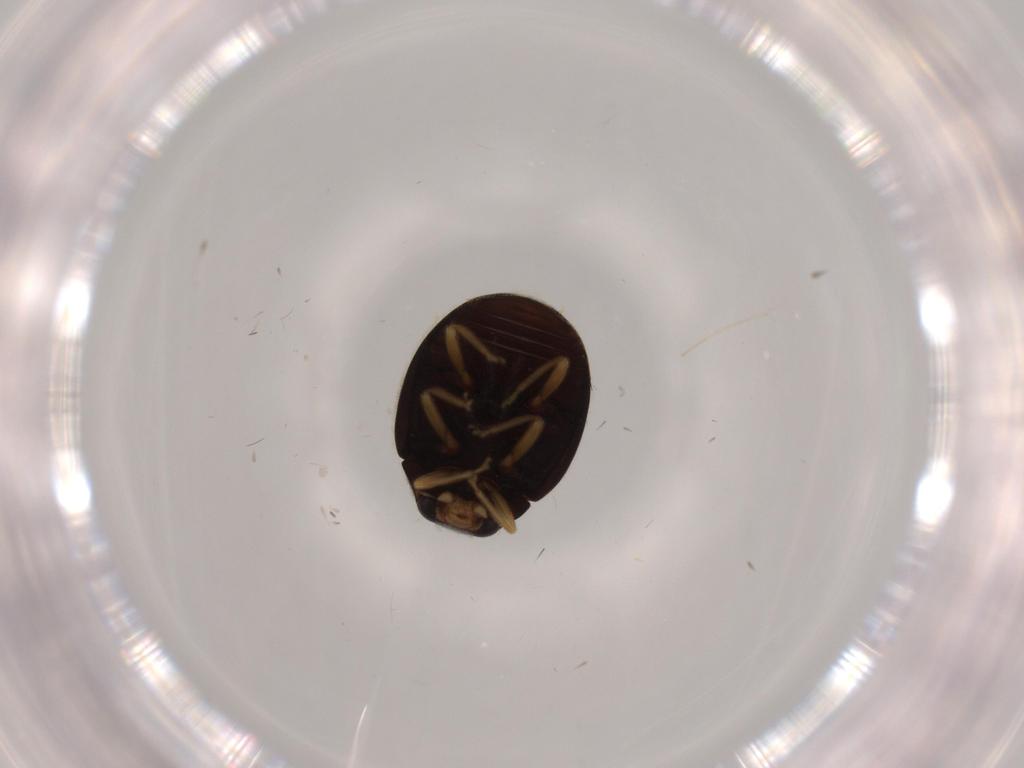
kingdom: Animalia
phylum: Arthropoda
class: Insecta
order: Coleoptera
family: Coccinellidae
